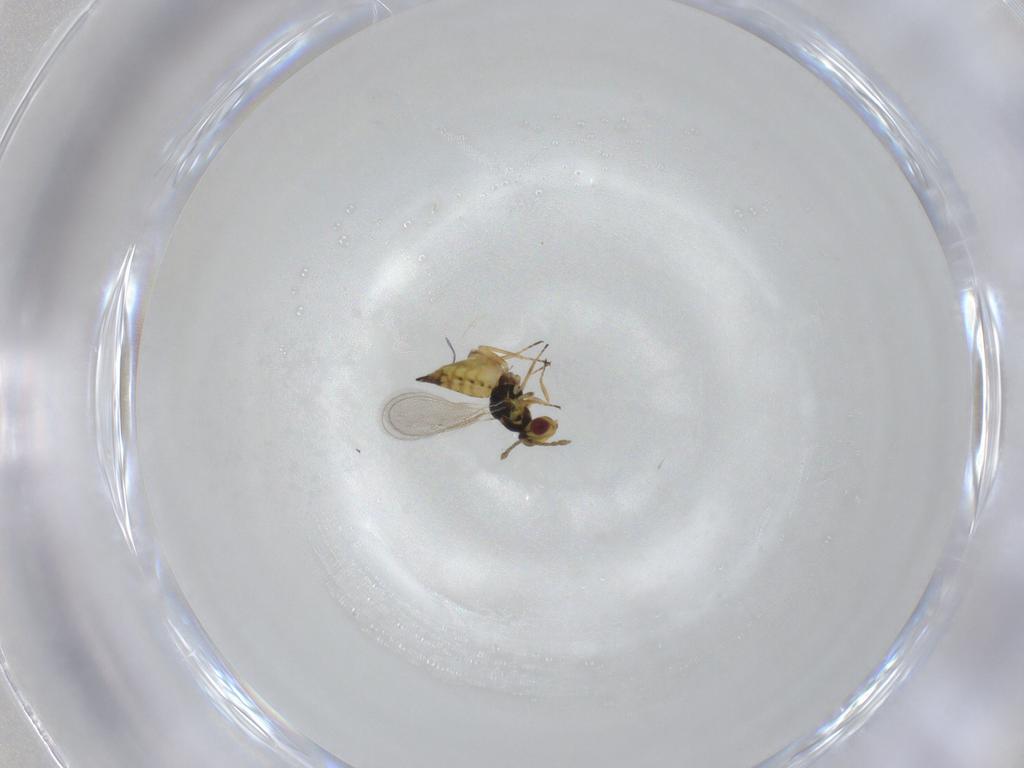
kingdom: Animalia
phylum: Arthropoda
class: Insecta
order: Hymenoptera
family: Eulophidae
